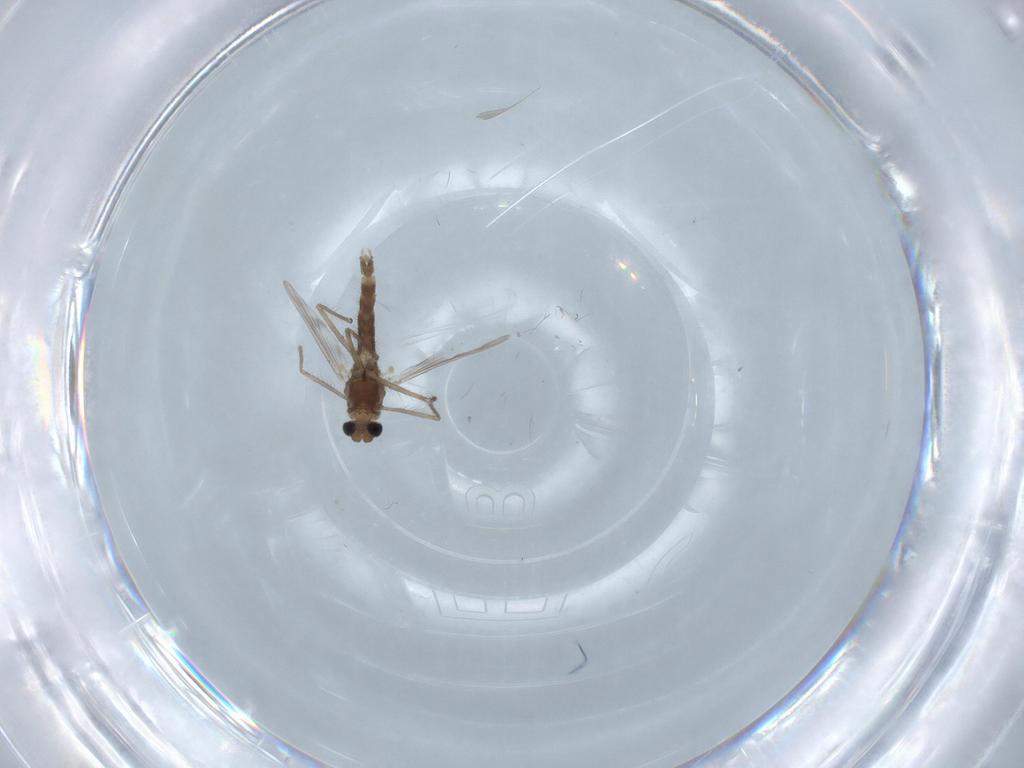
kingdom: Animalia
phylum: Arthropoda
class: Insecta
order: Diptera
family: Chironomidae
